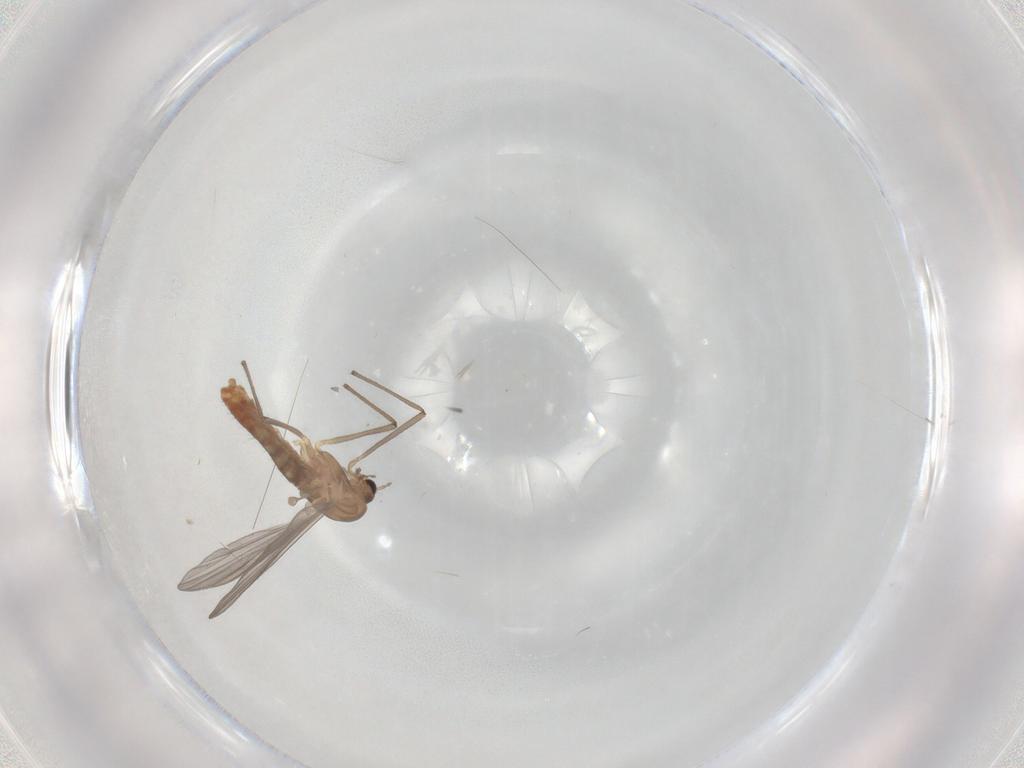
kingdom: Animalia
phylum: Arthropoda
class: Insecta
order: Diptera
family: Chironomidae
